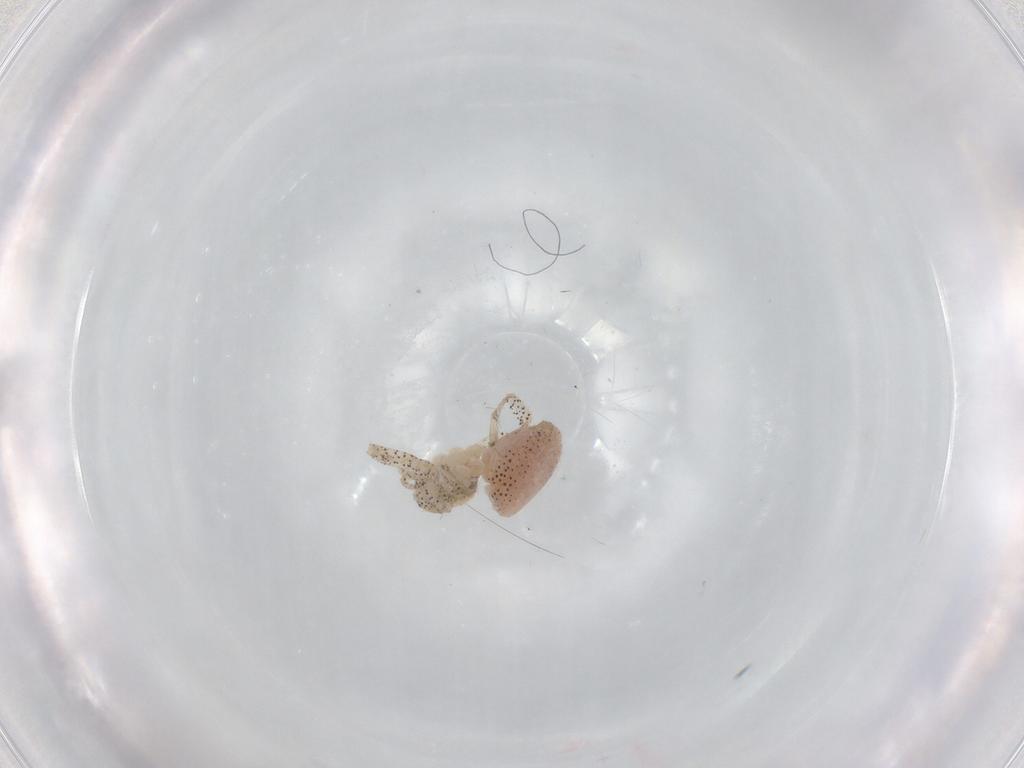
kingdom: Animalia
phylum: Arthropoda
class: Arachnida
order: Araneae
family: Philodromidae
